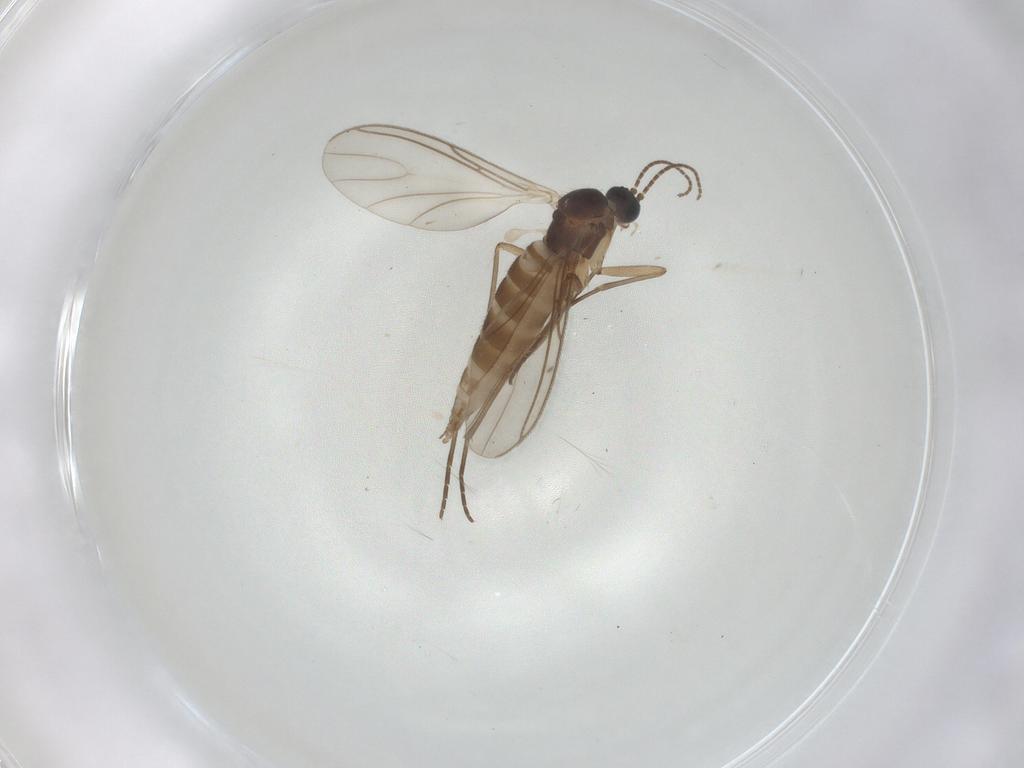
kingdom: Animalia
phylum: Arthropoda
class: Insecta
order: Diptera
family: Sciaridae
